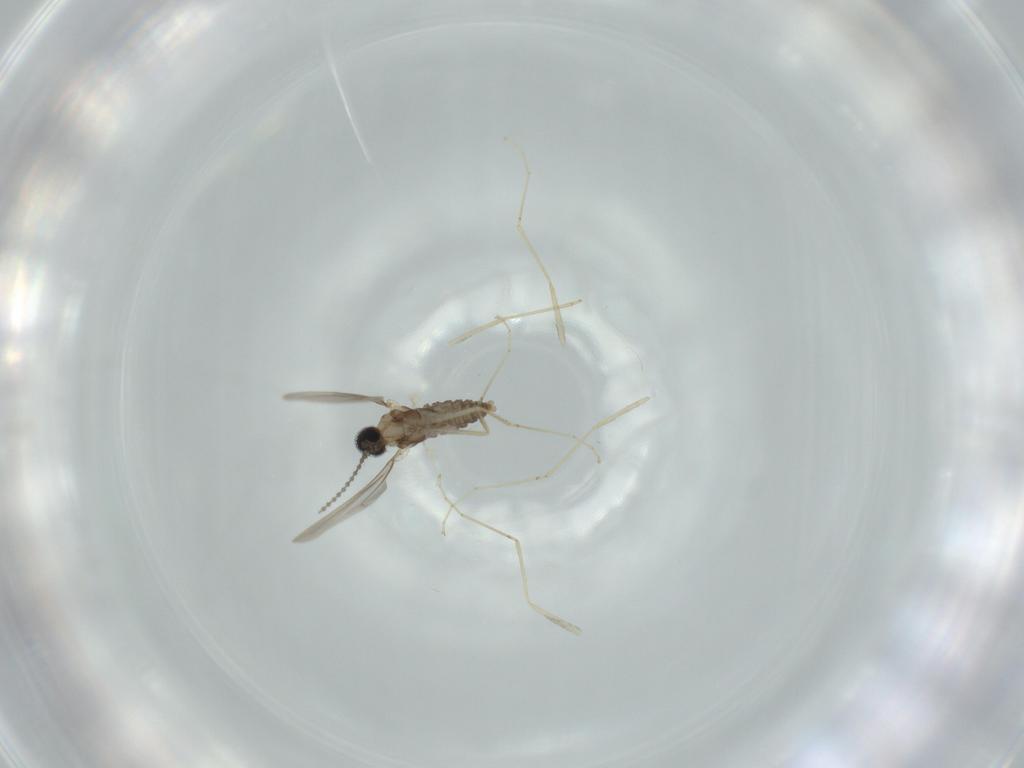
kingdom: Animalia
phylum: Arthropoda
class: Insecta
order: Diptera
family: Cecidomyiidae
